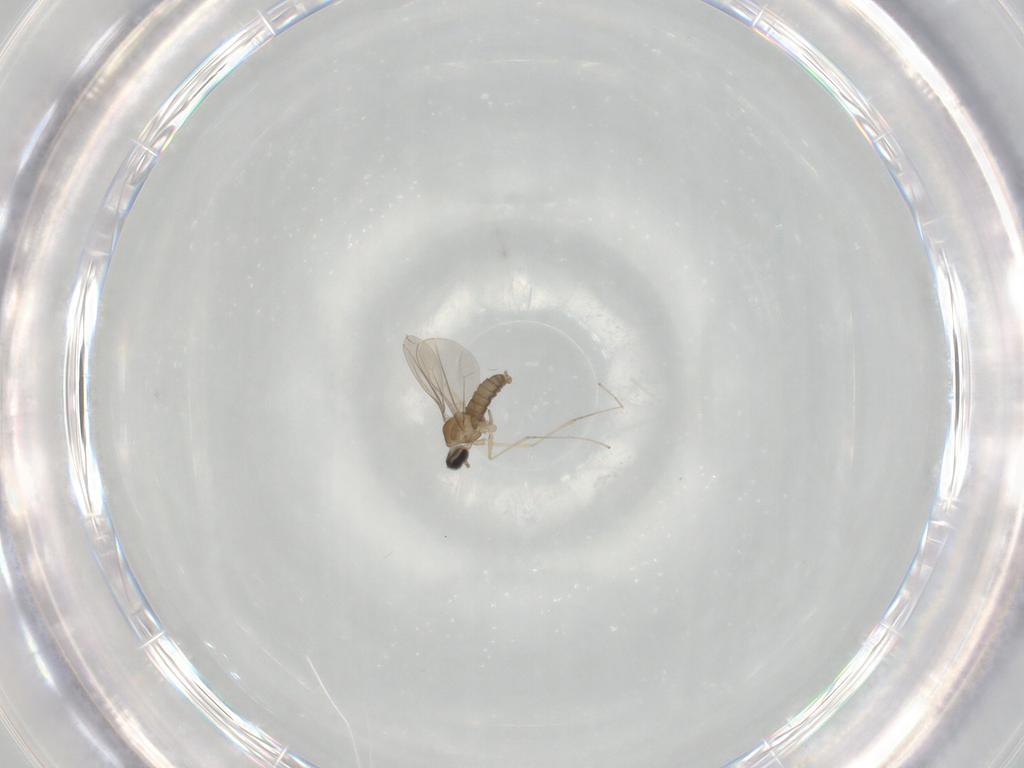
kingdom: Animalia
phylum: Arthropoda
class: Insecta
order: Diptera
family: Cecidomyiidae
